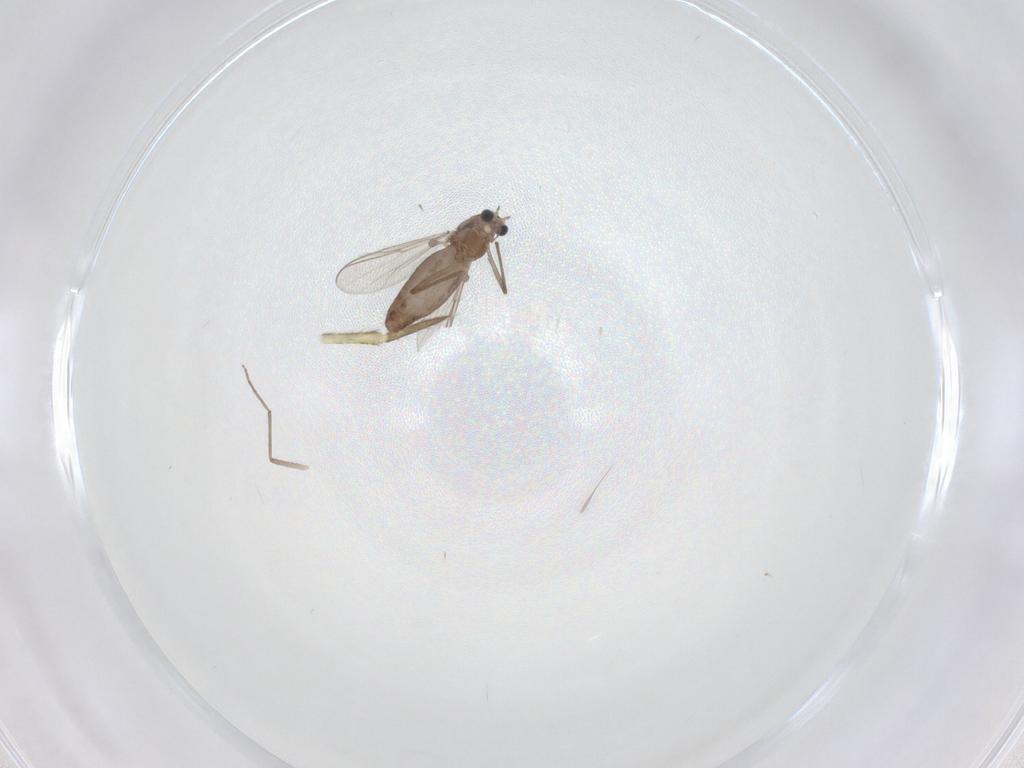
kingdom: Animalia
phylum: Arthropoda
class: Insecta
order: Diptera
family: Chironomidae
